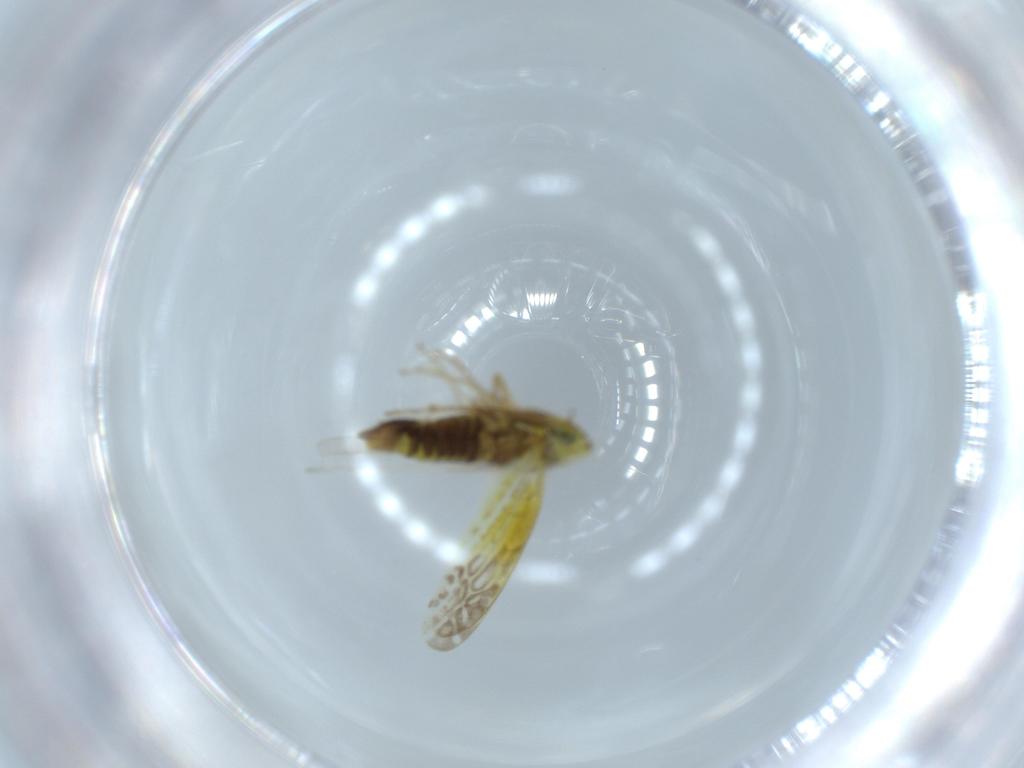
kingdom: Animalia
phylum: Arthropoda
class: Insecta
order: Hemiptera
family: Cicadellidae
